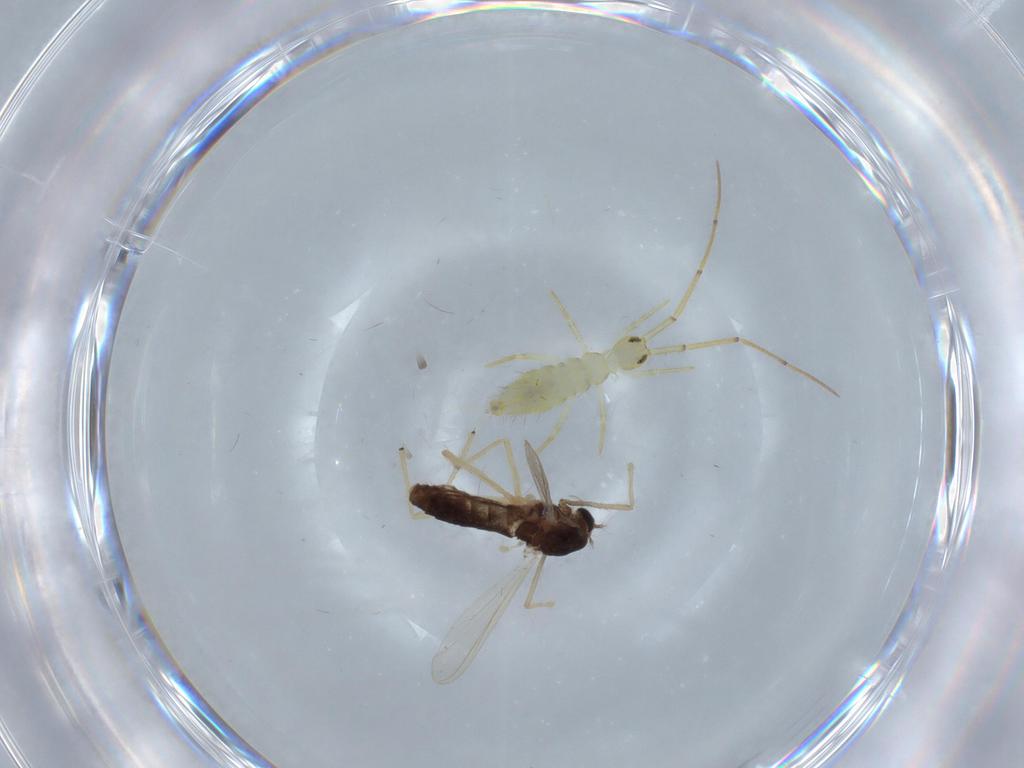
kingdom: Animalia
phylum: Arthropoda
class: Insecta
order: Diptera
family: Chironomidae
